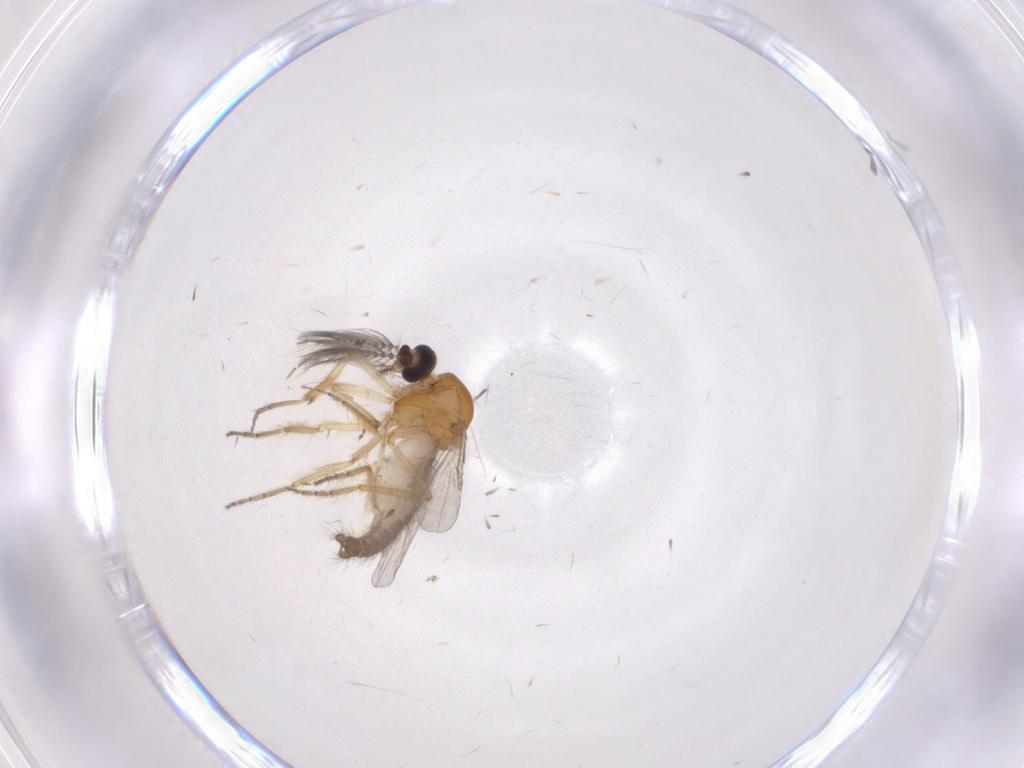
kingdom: Animalia
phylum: Arthropoda
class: Insecta
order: Diptera
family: Ceratopogonidae
